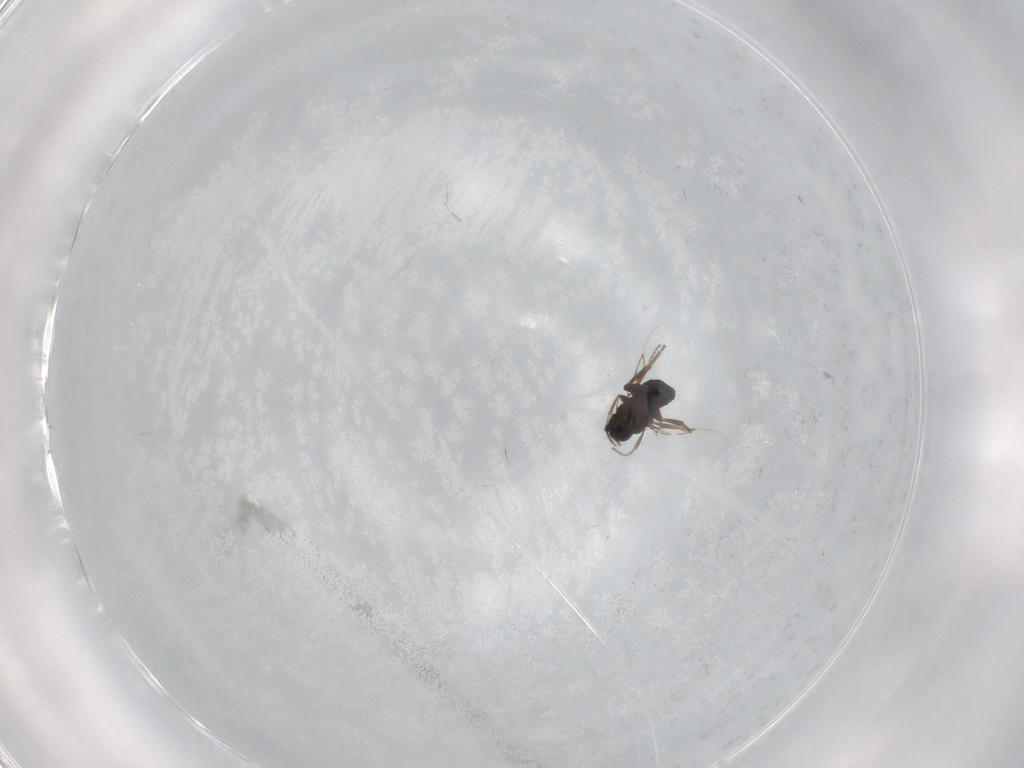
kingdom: Animalia
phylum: Arthropoda
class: Insecta
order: Diptera
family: Phoridae
